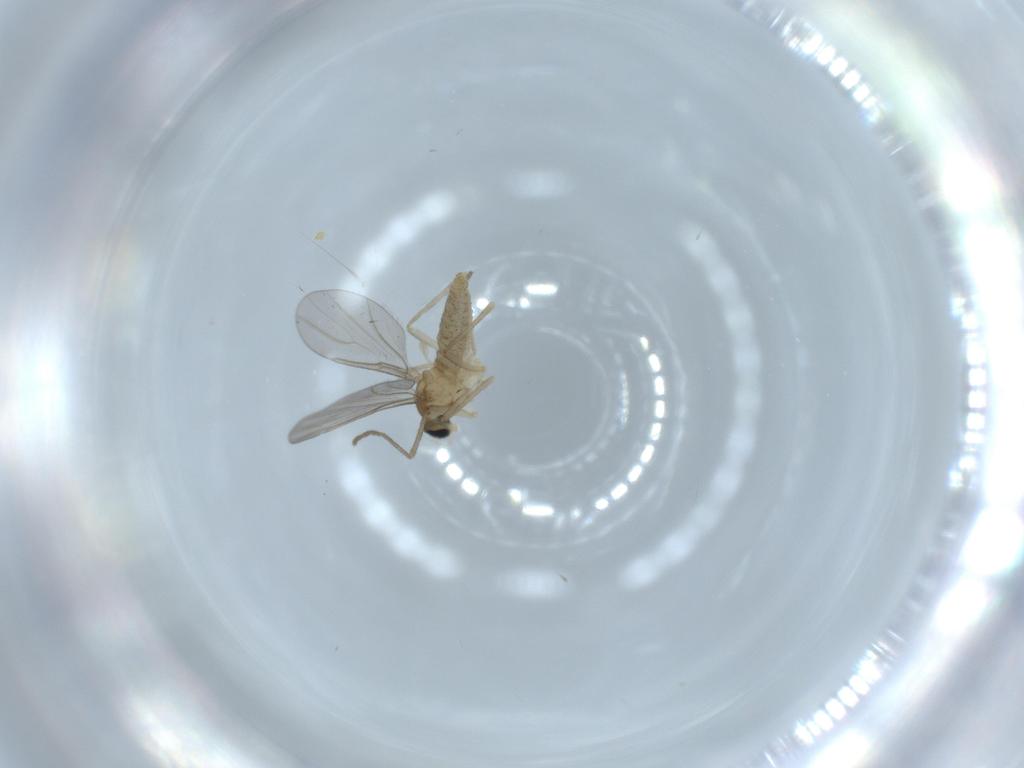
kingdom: Animalia
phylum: Arthropoda
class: Insecta
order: Diptera
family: Cecidomyiidae
